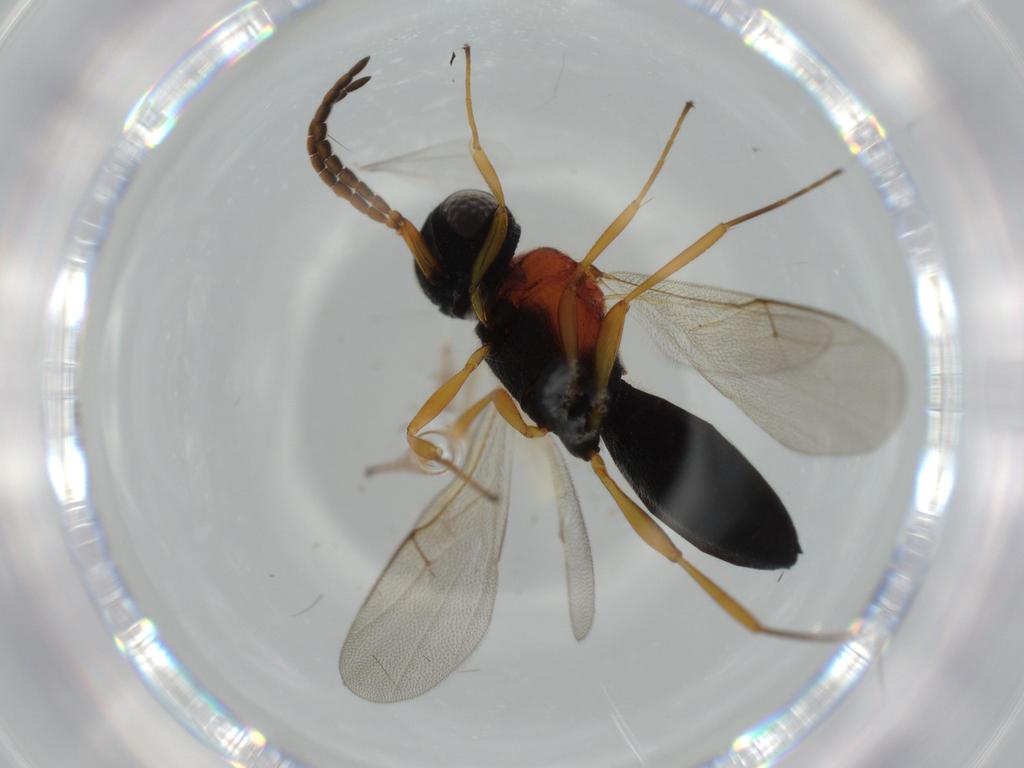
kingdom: Animalia
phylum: Arthropoda
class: Insecta
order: Hymenoptera
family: Scelionidae
